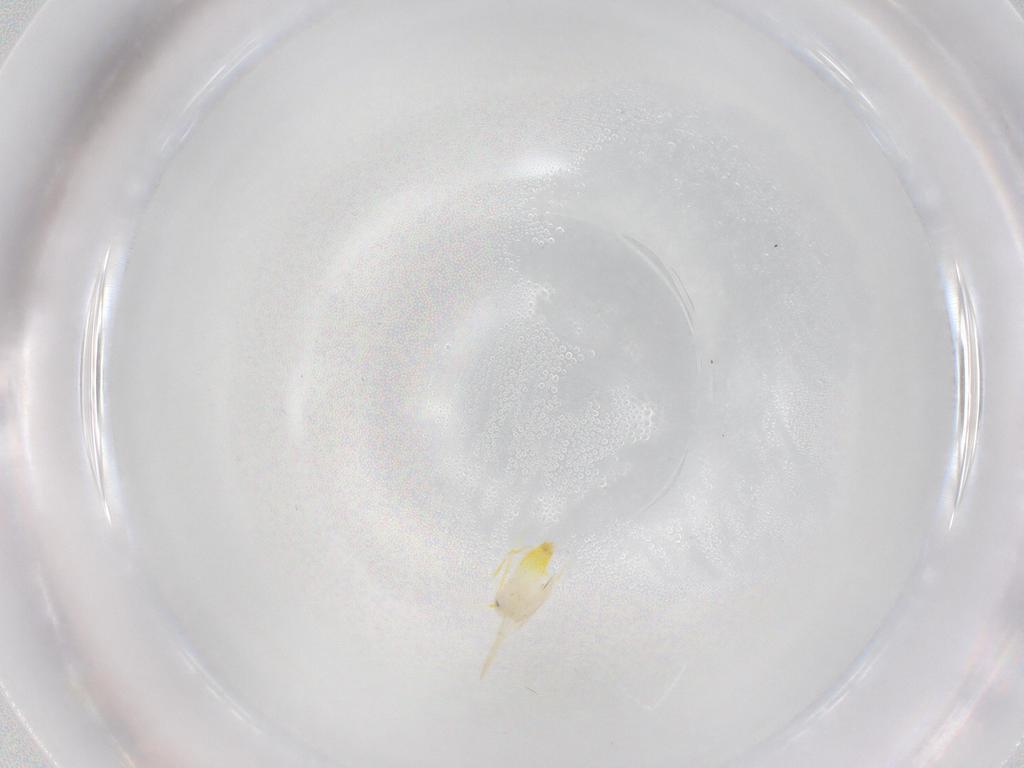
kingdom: Animalia
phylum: Arthropoda
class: Insecta
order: Hemiptera
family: Aleyrodidae
